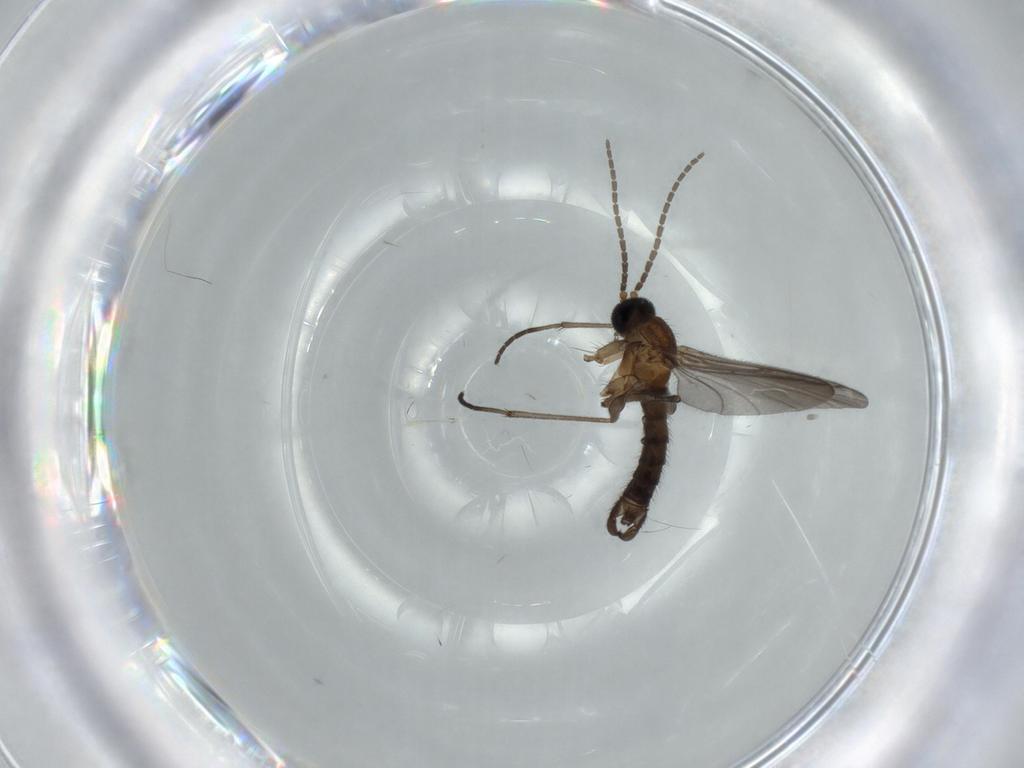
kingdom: Animalia
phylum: Arthropoda
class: Insecta
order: Diptera
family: Sciaridae
